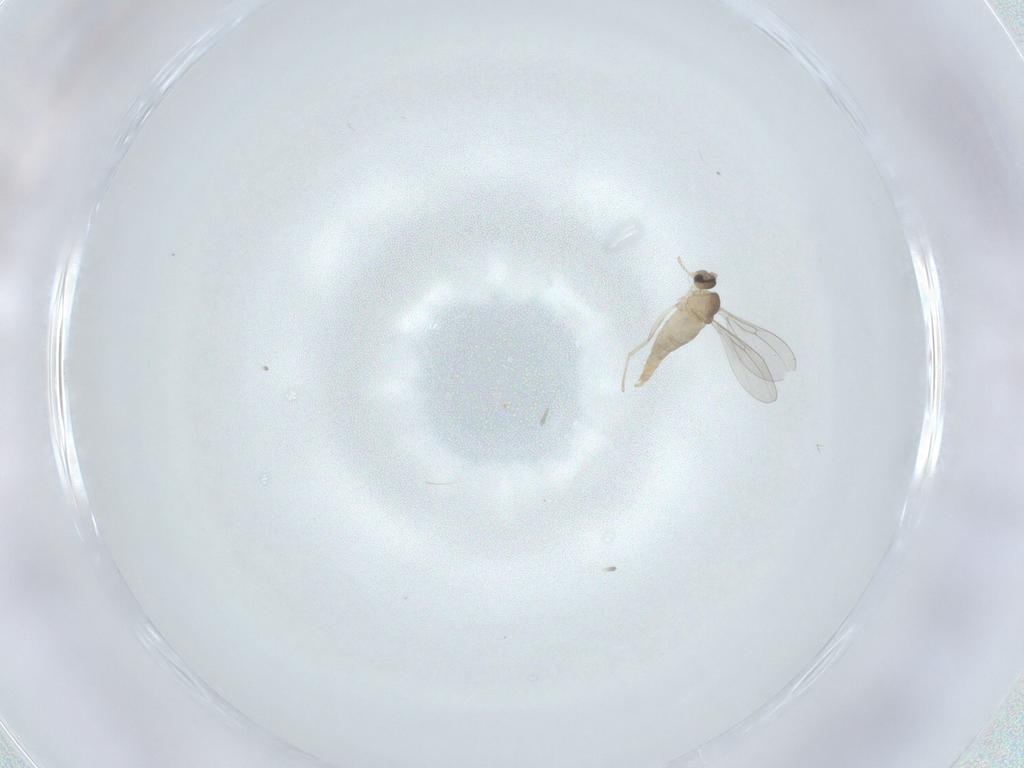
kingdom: Animalia
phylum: Arthropoda
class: Insecta
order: Diptera
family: Cecidomyiidae
